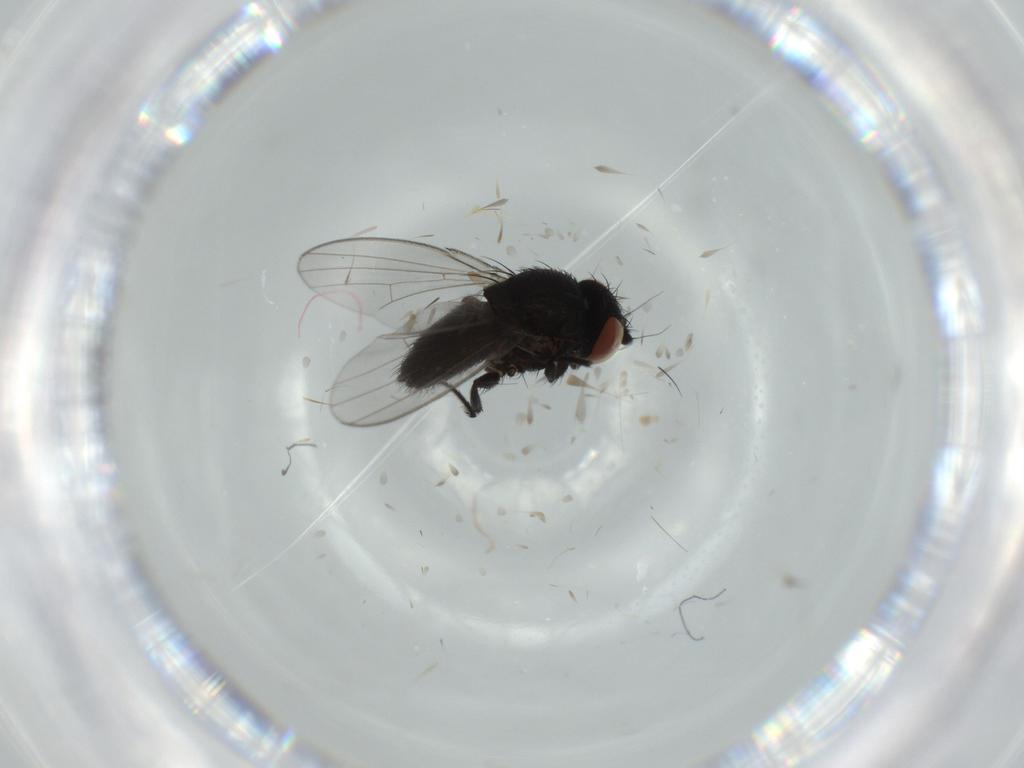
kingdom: Animalia
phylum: Arthropoda
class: Insecta
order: Diptera
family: Milichiidae
